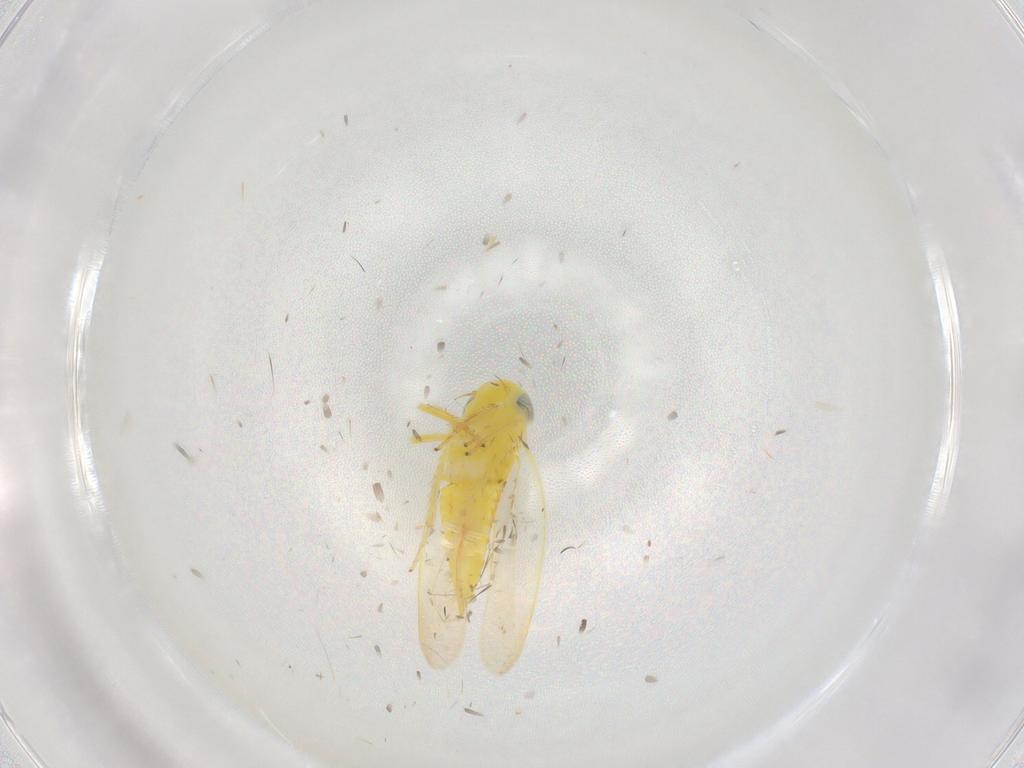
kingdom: Animalia
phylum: Arthropoda
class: Insecta
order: Hemiptera
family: Cicadellidae
